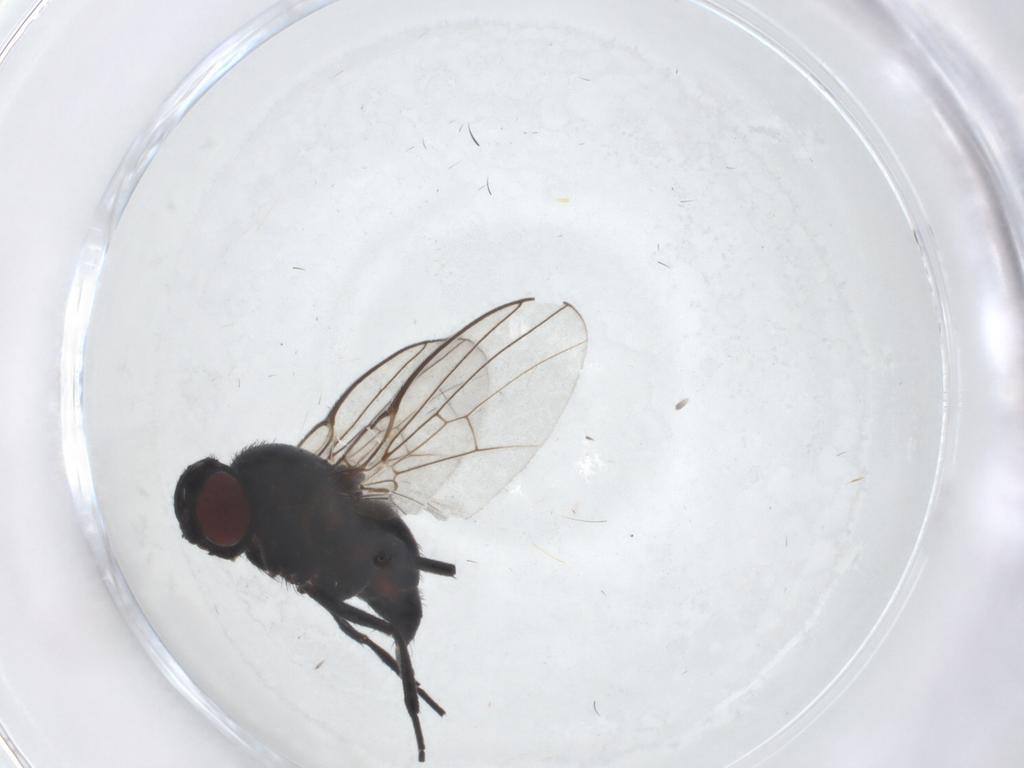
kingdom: Animalia
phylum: Arthropoda
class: Insecta
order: Diptera
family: Agromyzidae
